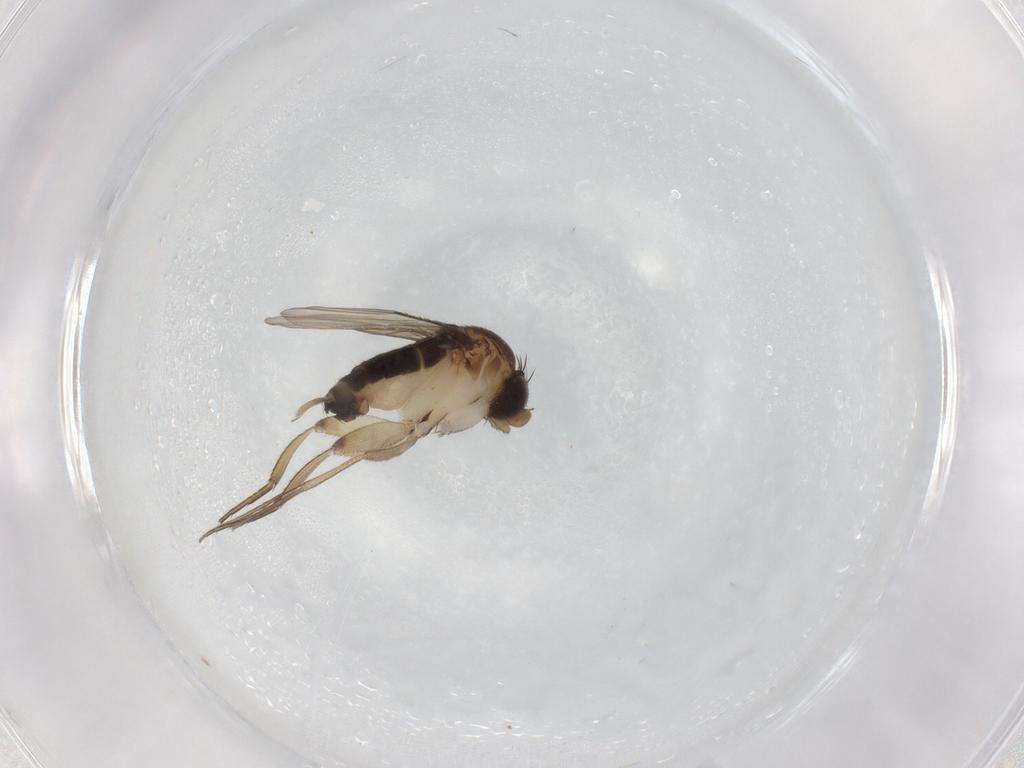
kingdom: Animalia
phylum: Arthropoda
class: Insecta
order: Diptera
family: Phoridae
